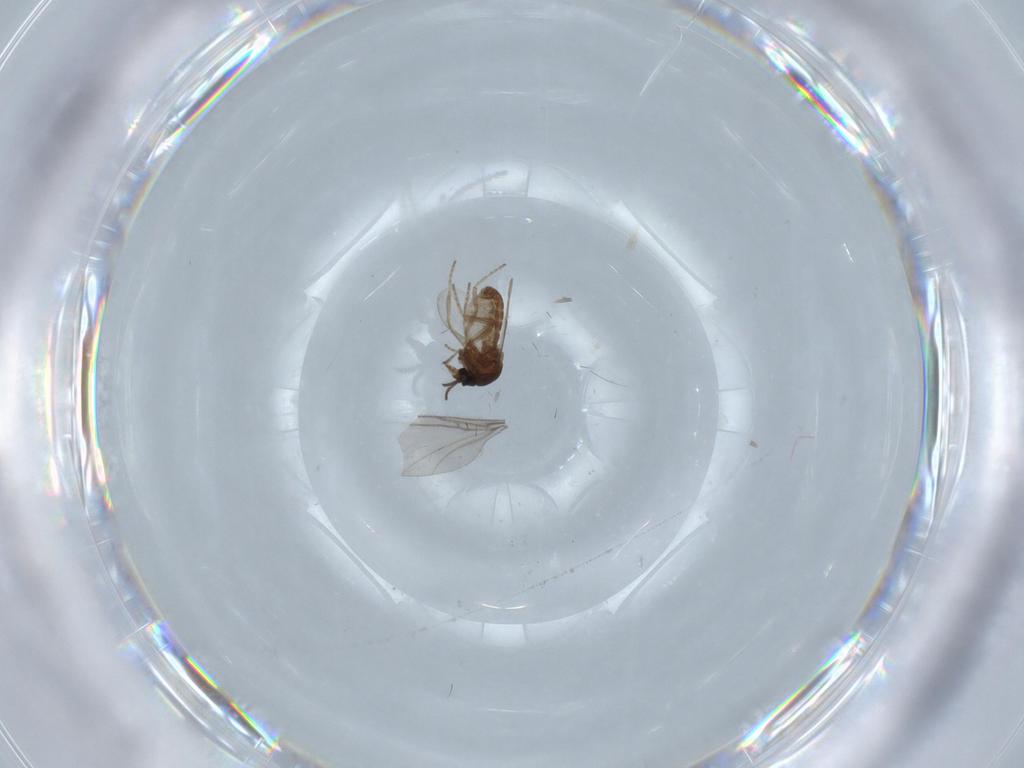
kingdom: Animalia
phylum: Arthropoda
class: Insecta
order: Diptera
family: Ceratopogonidae
